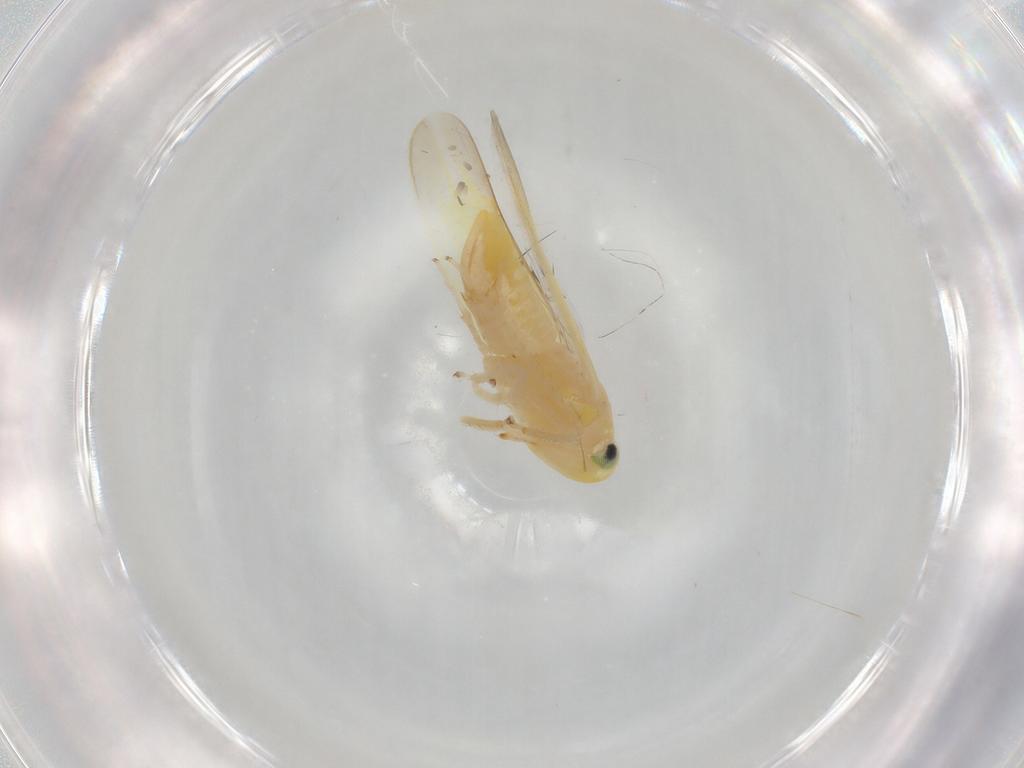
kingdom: Animalia
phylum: Arthropoda
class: Insecta
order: Hemiptera
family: Cicadellidae
